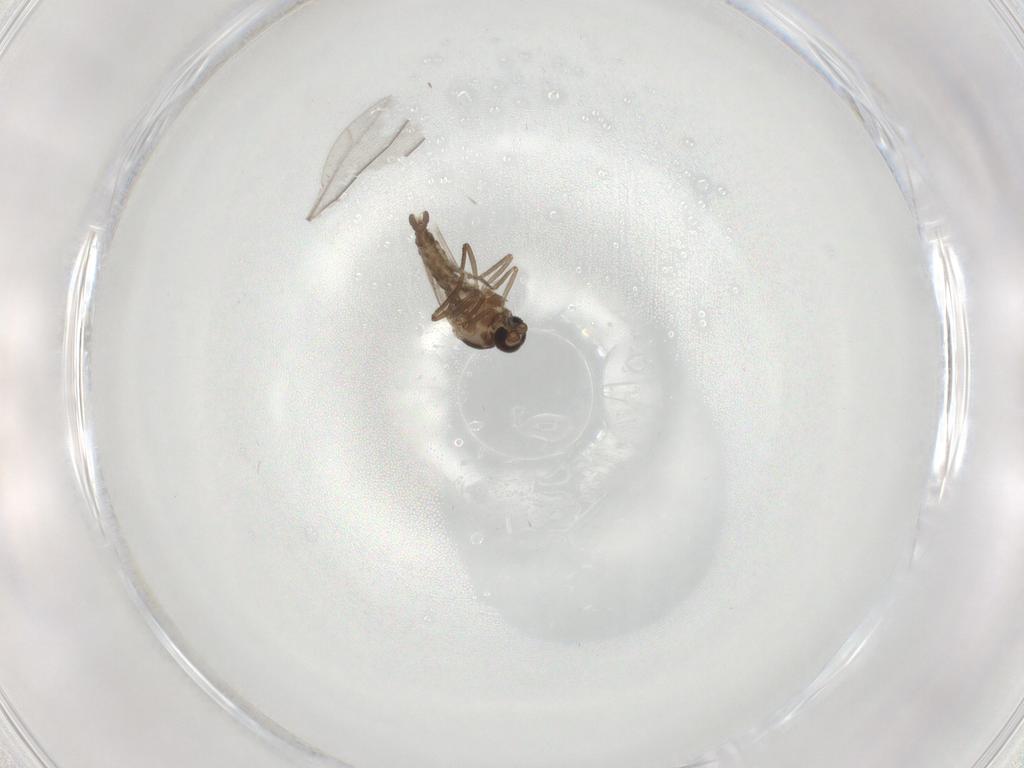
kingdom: Animalia
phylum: Arthropoda
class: Insecta
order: Diptera
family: Ceratopogonidae
